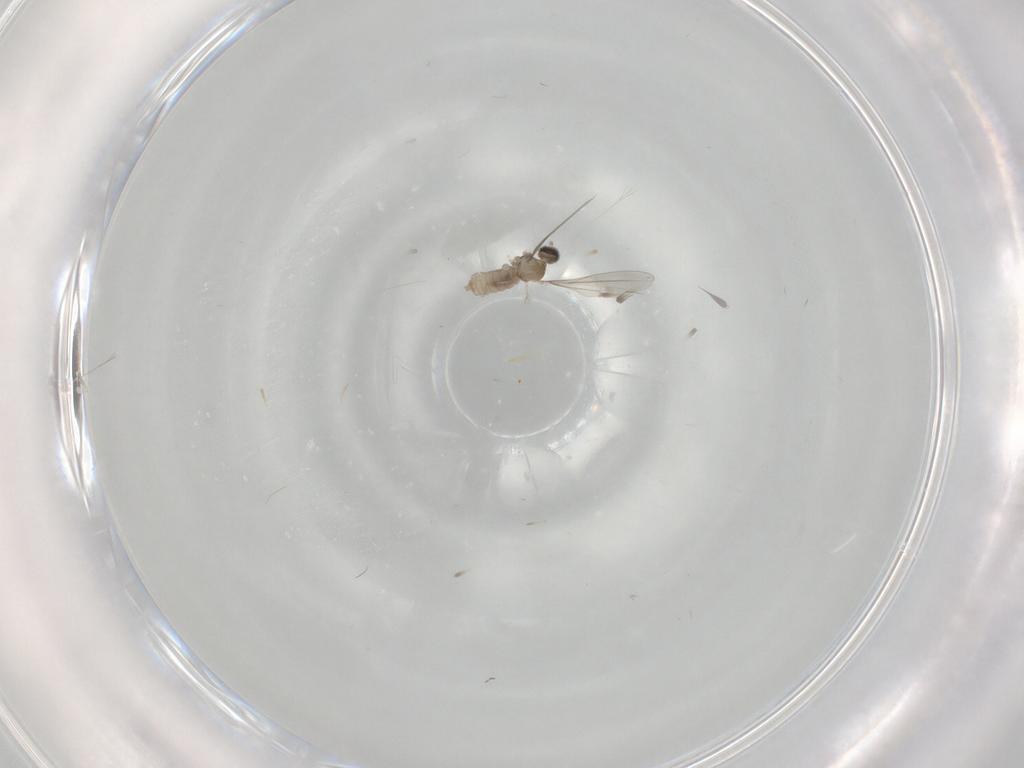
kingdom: Animalia
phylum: Arthropoda
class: Insecta
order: Diptera
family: Cecidomyiidae
